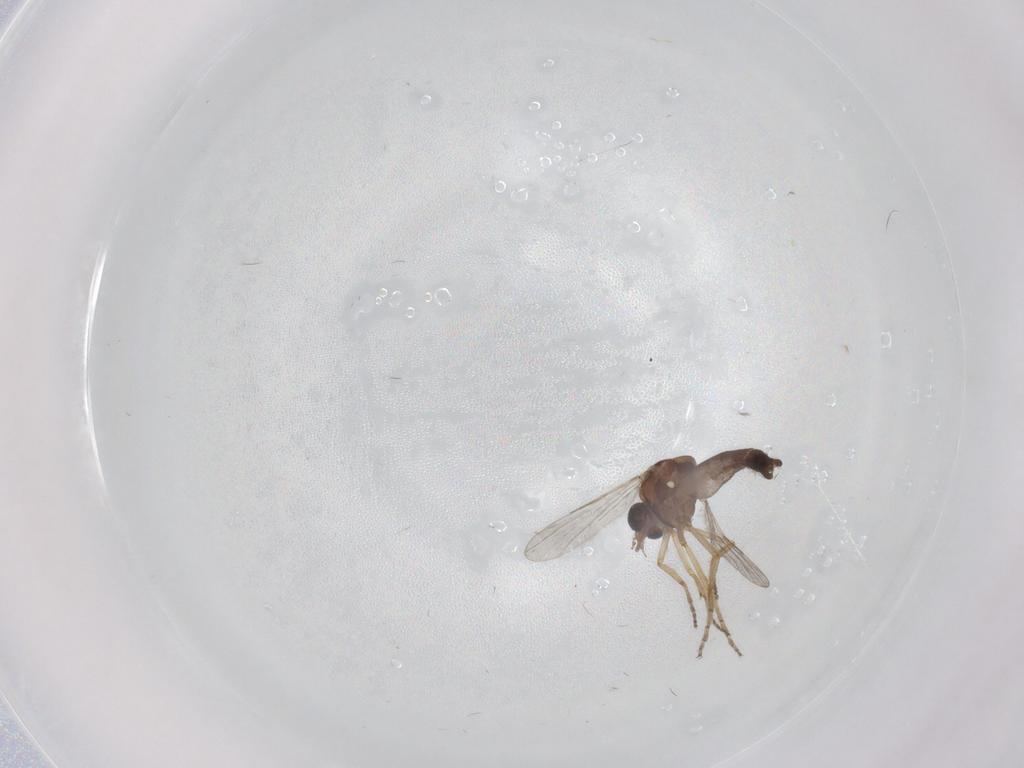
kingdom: Animalia
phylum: Arthropoda
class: Insecta
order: Diptera
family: Ceratopogonidae
